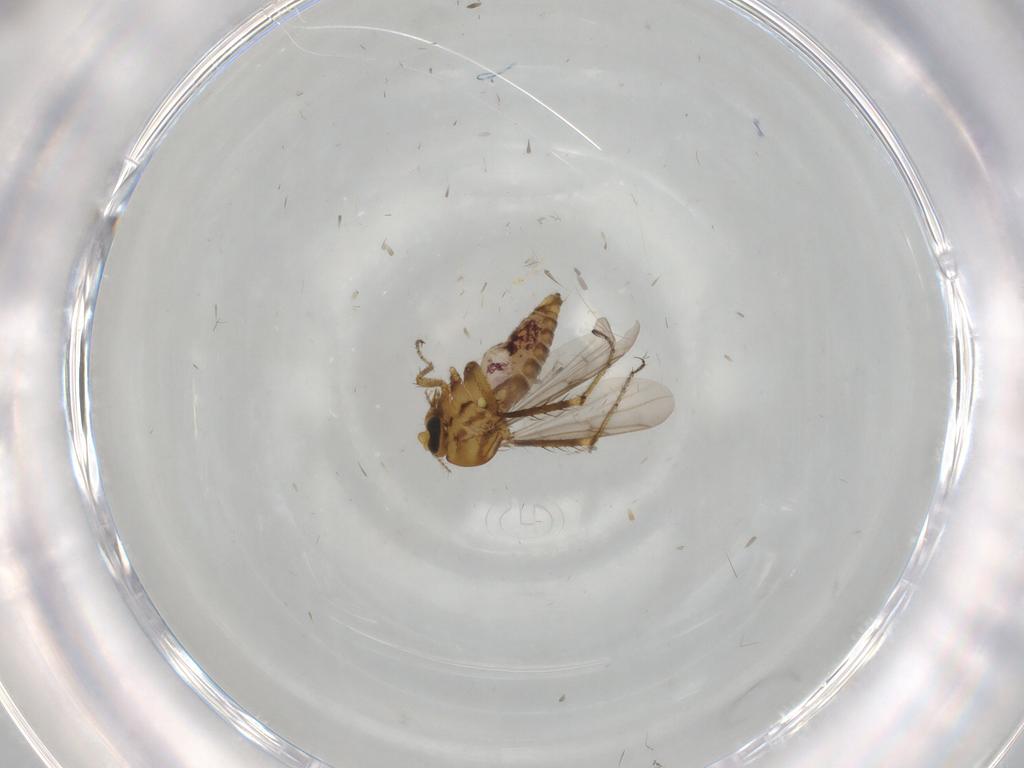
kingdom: Animalia
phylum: Arthropoda
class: Insecta
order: Diptera
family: Ceratopogonidae
